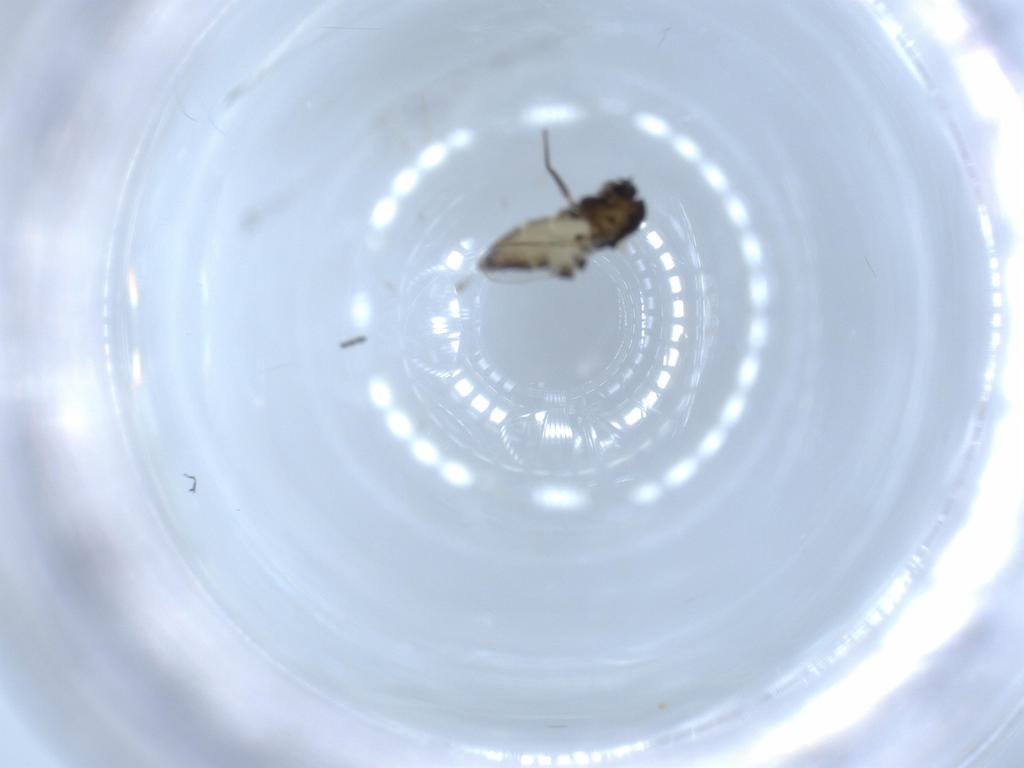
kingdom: Animalia
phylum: Arthropoda
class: Insecta
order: Diptera
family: Chironomidae
